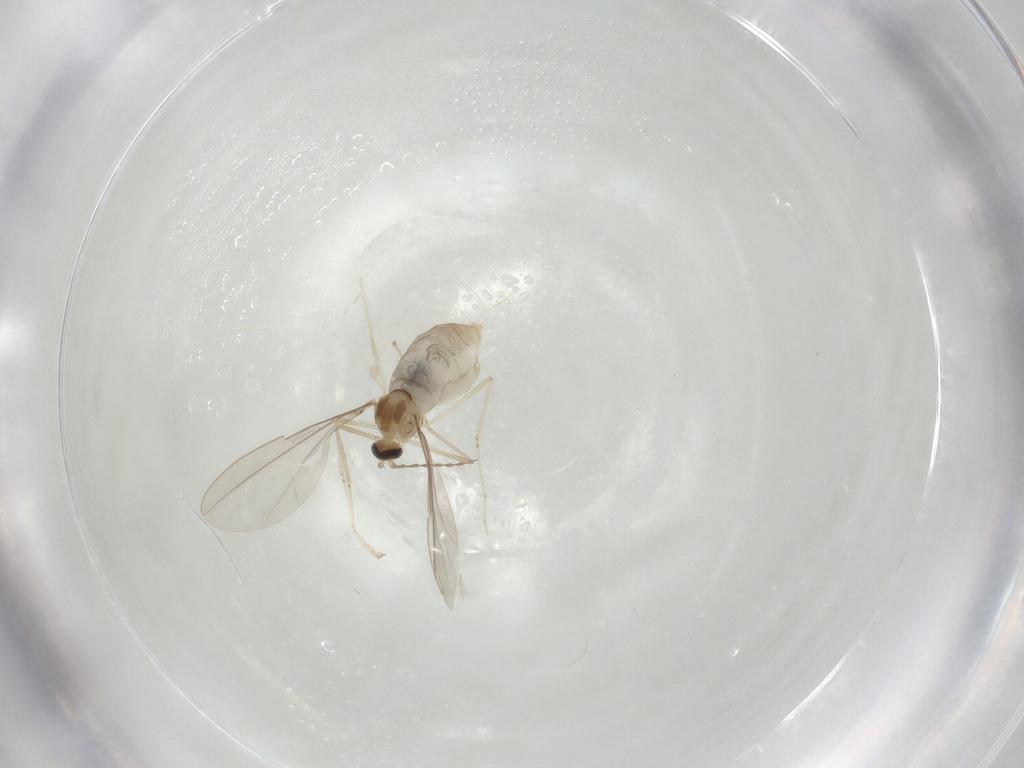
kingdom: Animalia
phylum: Arthropoda
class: Insecta
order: Diptera
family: Cecidomyiidae
